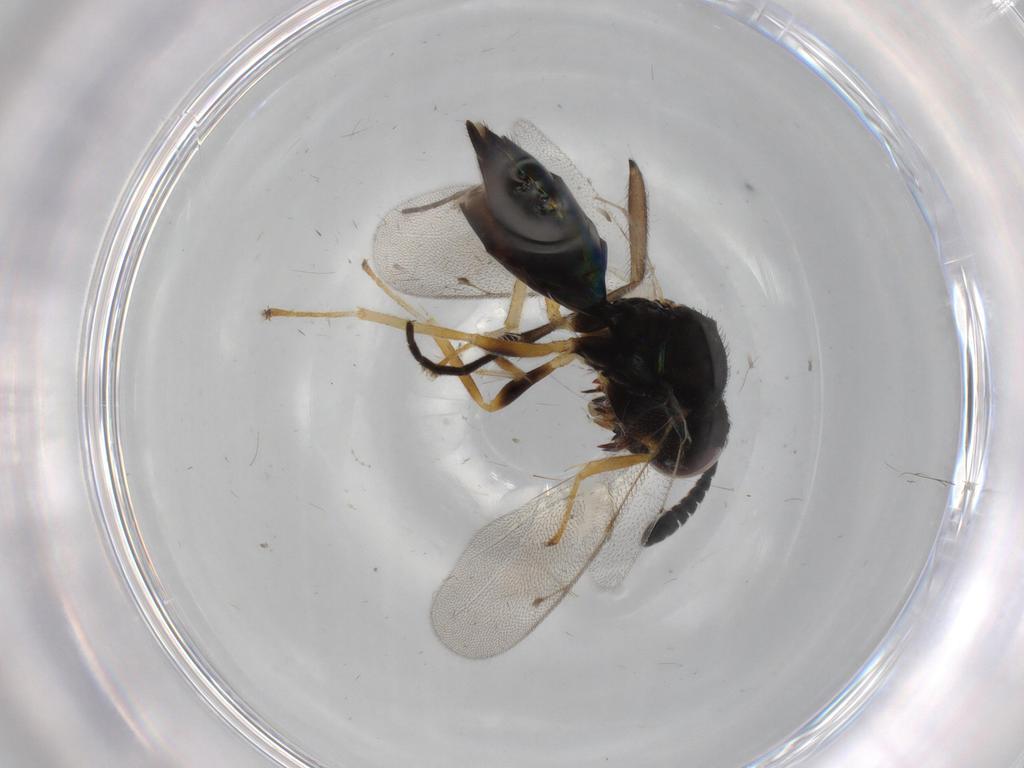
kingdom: Animalia
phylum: Arthropoda
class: Insecta
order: Hymenoptera
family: Pteromalidae
